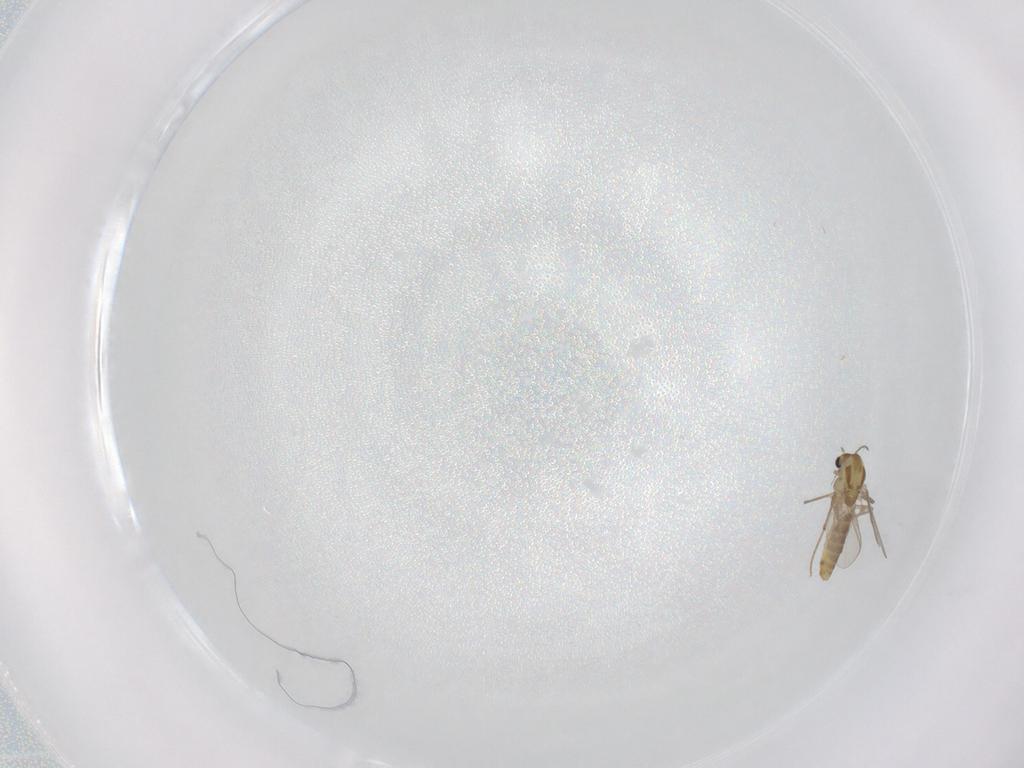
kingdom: Animalia
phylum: Arthropoda
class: Insecta
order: Diptera
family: Chironomidae
